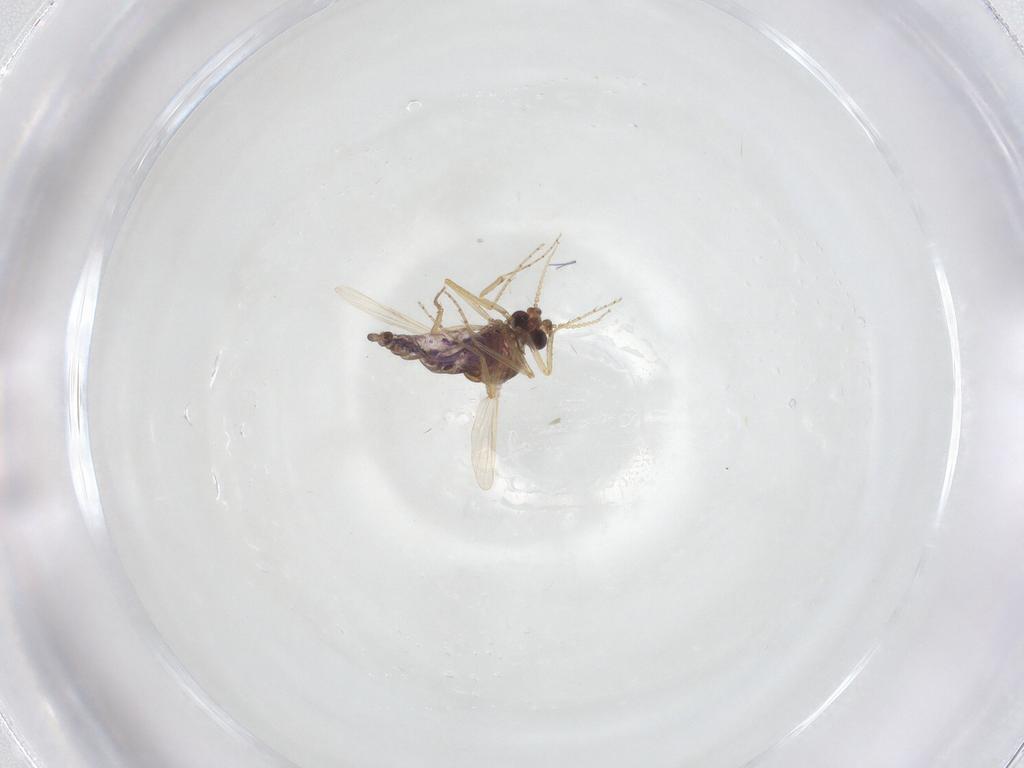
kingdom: Animalia
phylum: Arthropoda
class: Insecta
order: Diptera
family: Ceratopogonidae
